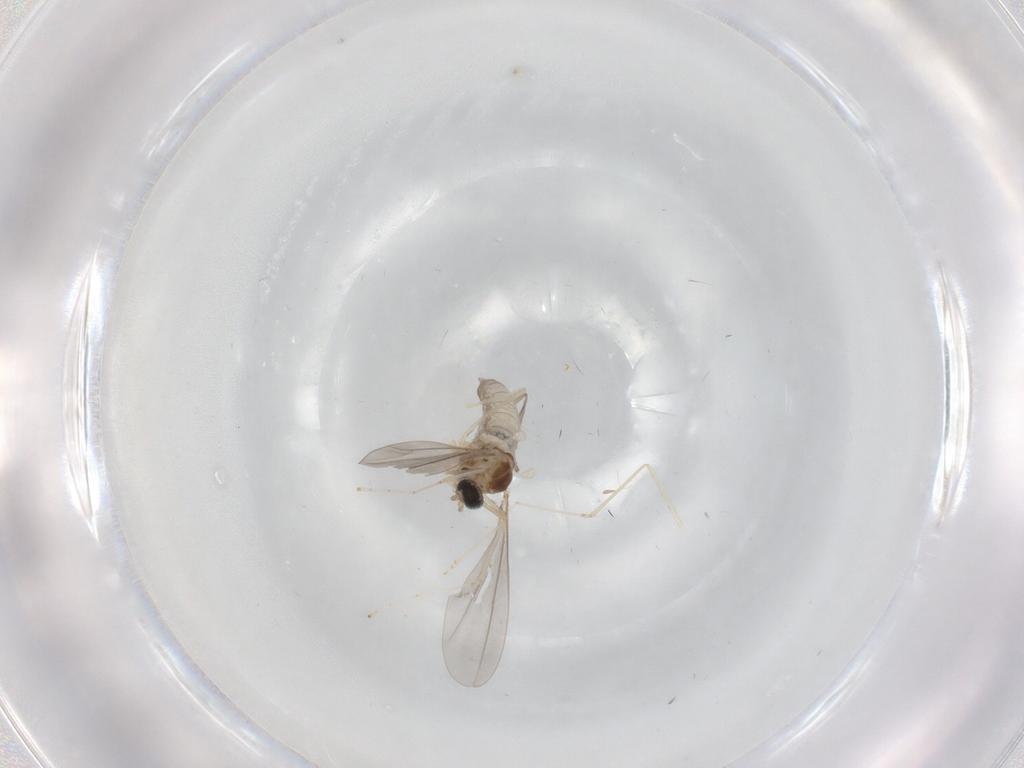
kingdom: Animalia
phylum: Arthropoda
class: Insecta
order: Diptera
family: Cecidomyiidae
